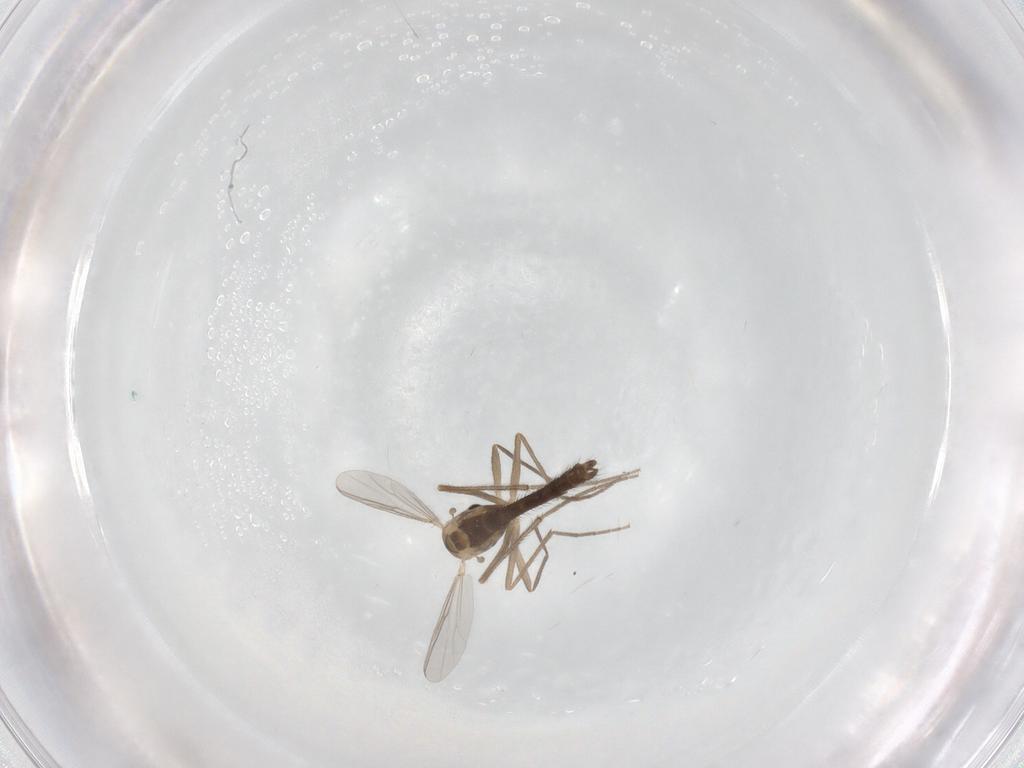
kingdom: Animalia
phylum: Arthropoda
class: Insecta
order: Diptera
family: Chironomidae
